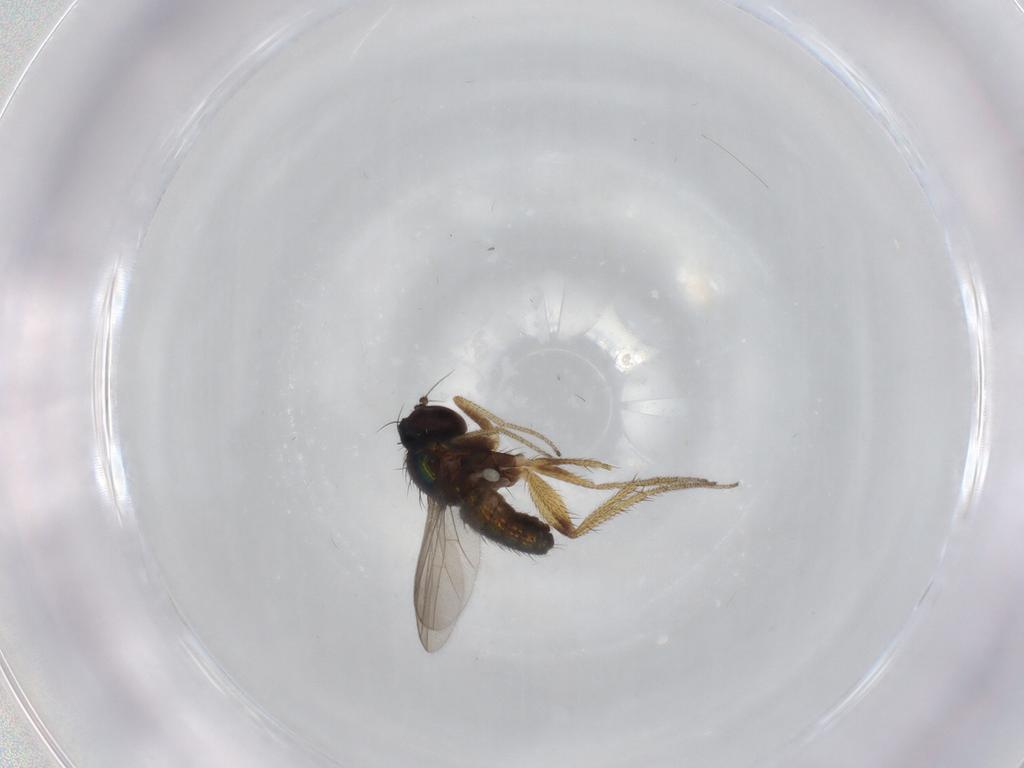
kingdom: Animalia
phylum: Arthropoda
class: Insecta
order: Diptera
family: Dolichopodidae
